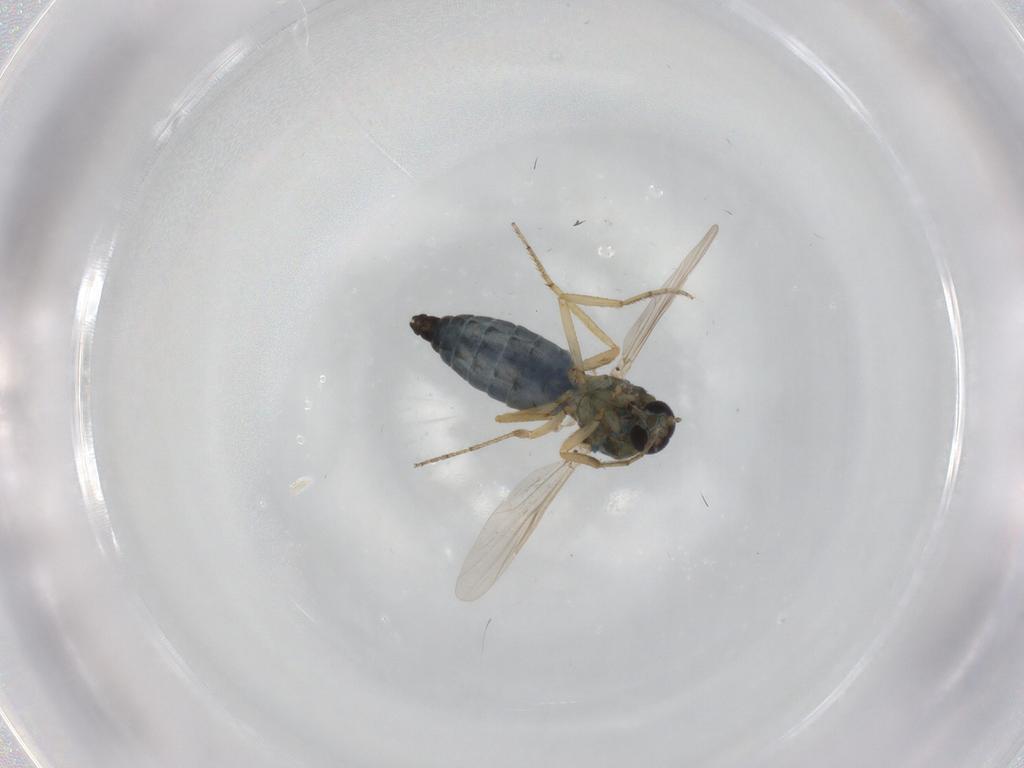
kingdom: Animalia
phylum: Arthropoda
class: Insecta
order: Diptera
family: Ceratopogonidae
